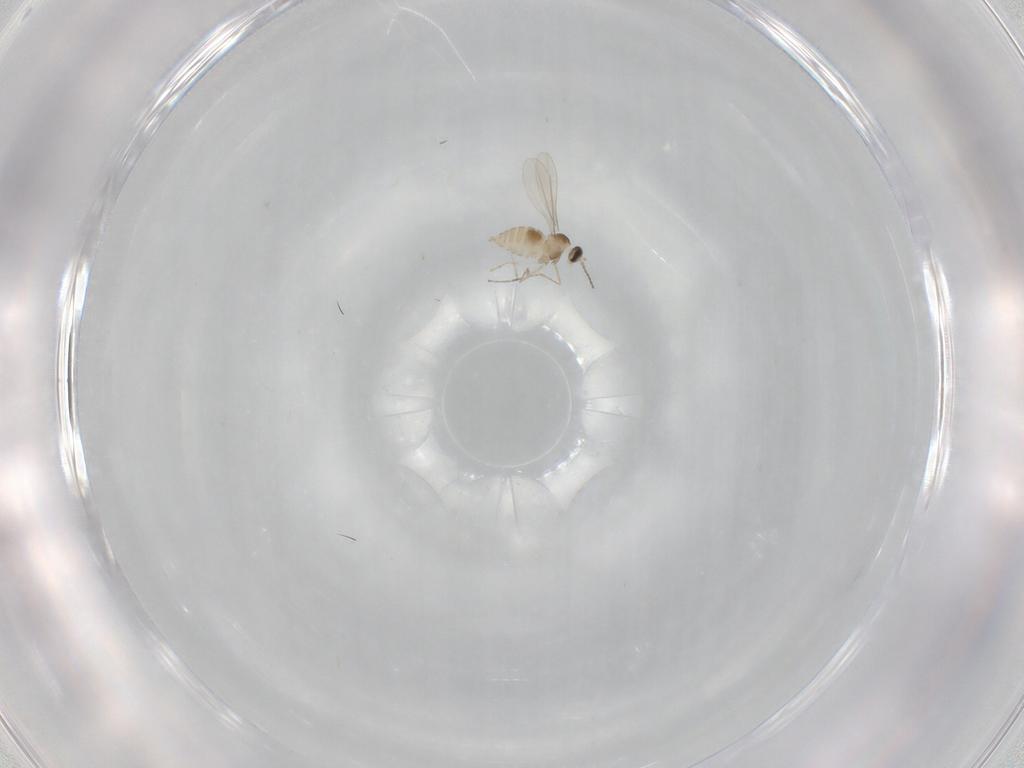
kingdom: Animalia
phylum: Arthropoda
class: Insecta
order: Diptera
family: Cecidomyiidae
